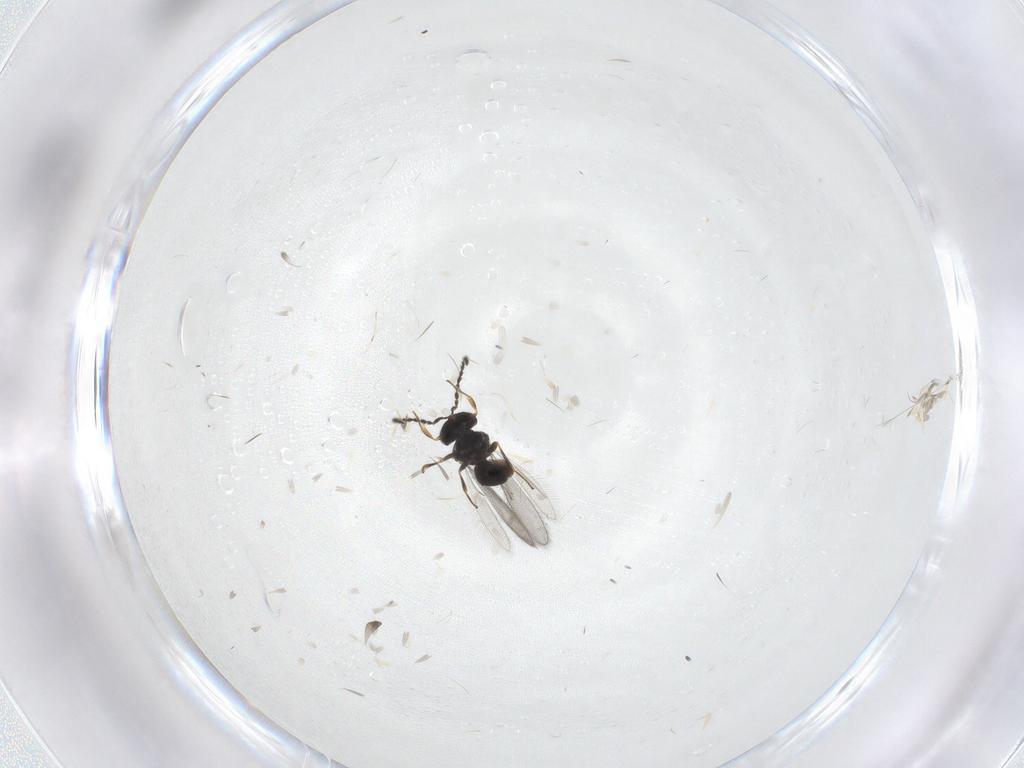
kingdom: Animalia
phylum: Arthropoda
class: Insecta
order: Hymenoptera
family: Scelionidae
